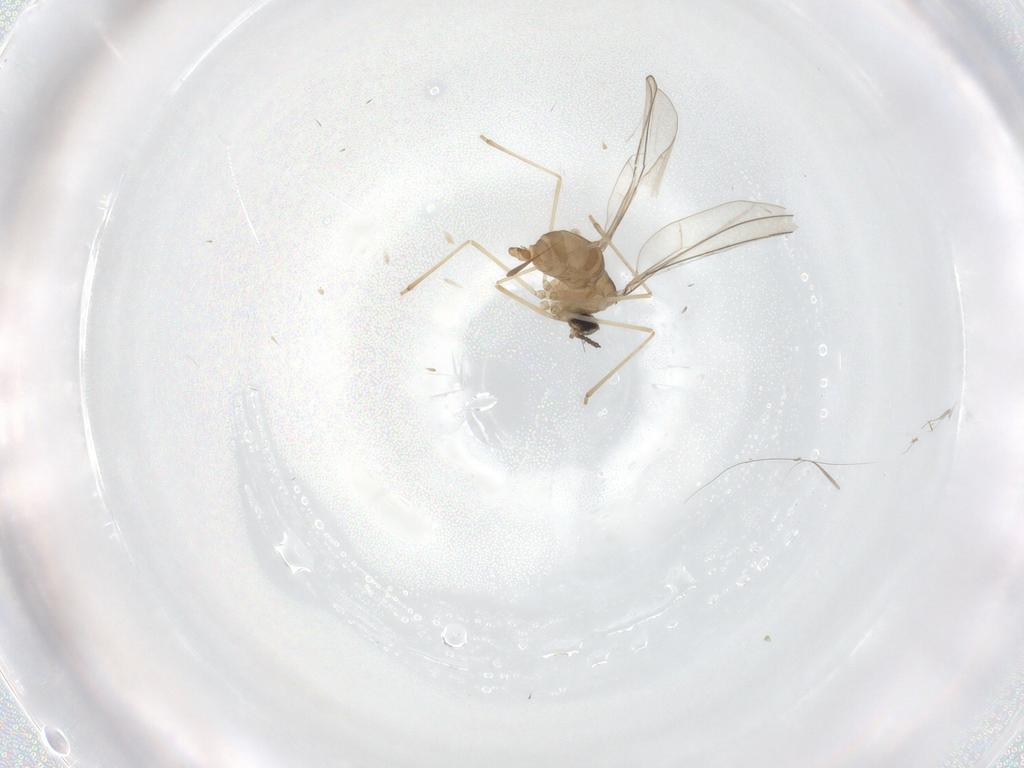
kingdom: Animalia
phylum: Arthropoda
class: Insecta
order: Diptera
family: Cecidomyiidae
